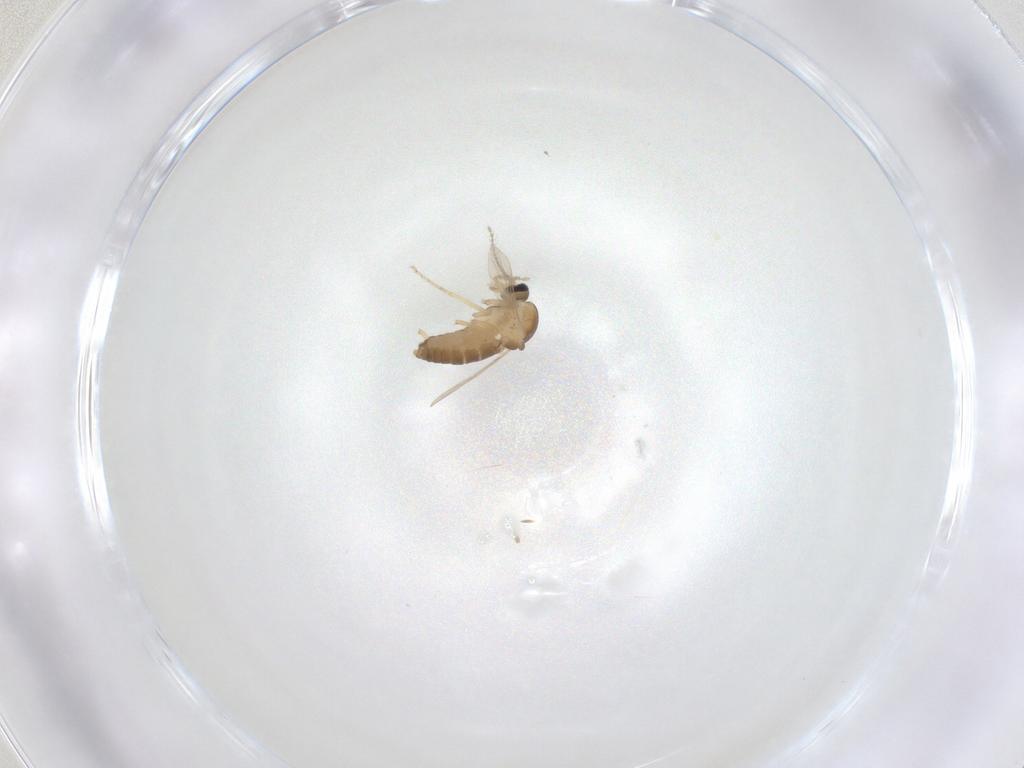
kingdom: Animalia
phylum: Arthropoda
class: Insecta
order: Diptera
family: Ceratopogonidae
